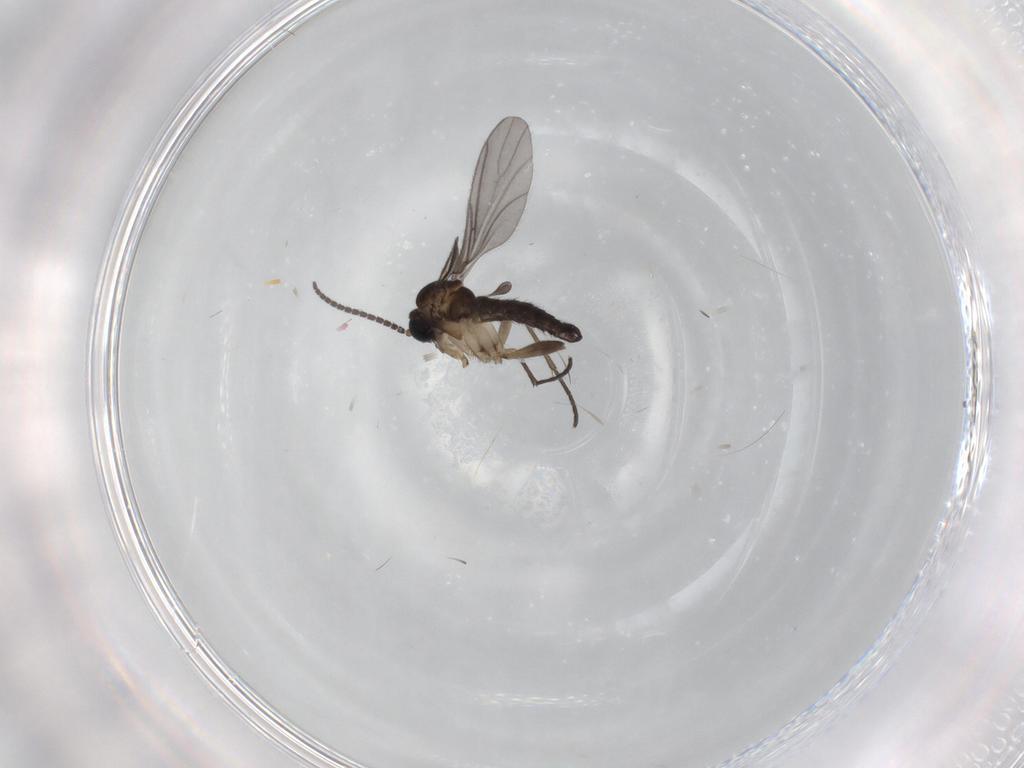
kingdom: Animalia
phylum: Arthropoda
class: Insecta
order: Diptera
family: Sciaridae
